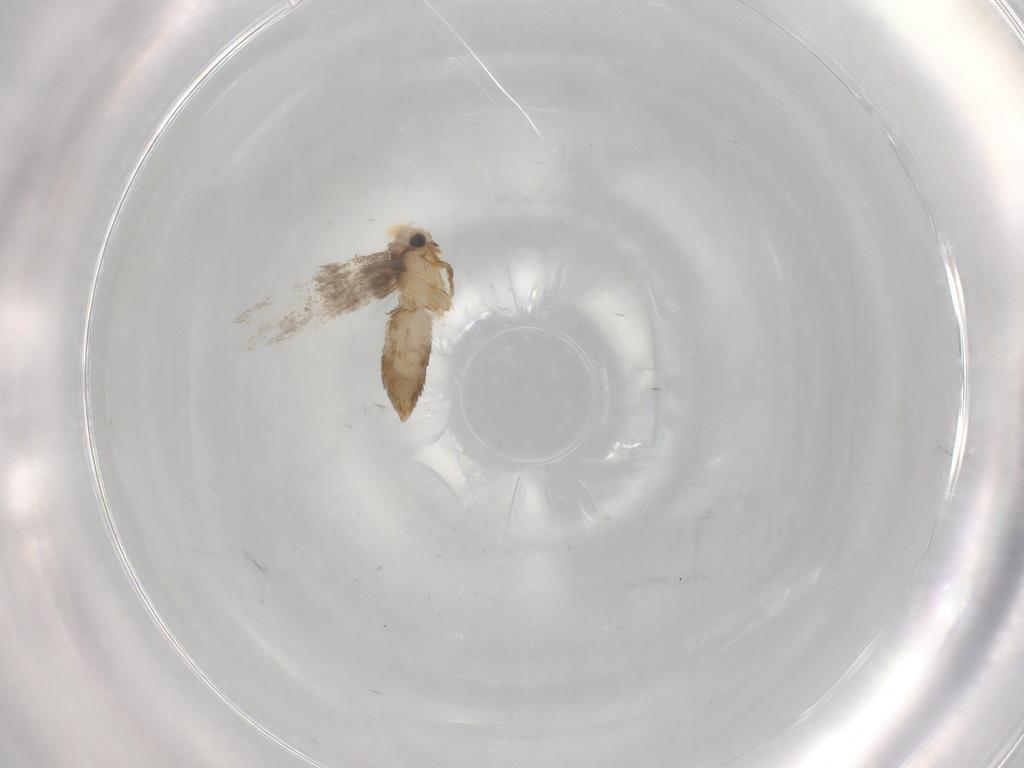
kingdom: Animalia
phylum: Arthropoda
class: Insecta
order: Lepidoptera
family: Nepticulidae
